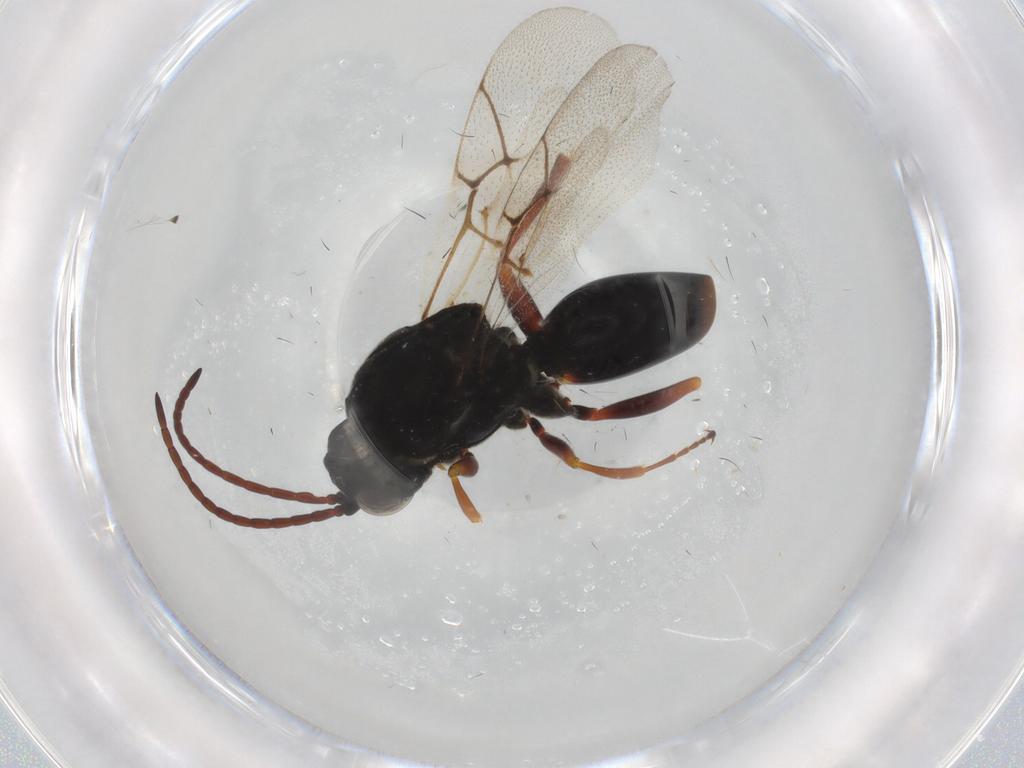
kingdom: Animalia
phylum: Arthropoda
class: Insecta
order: Hymenoptera
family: Figitidae
